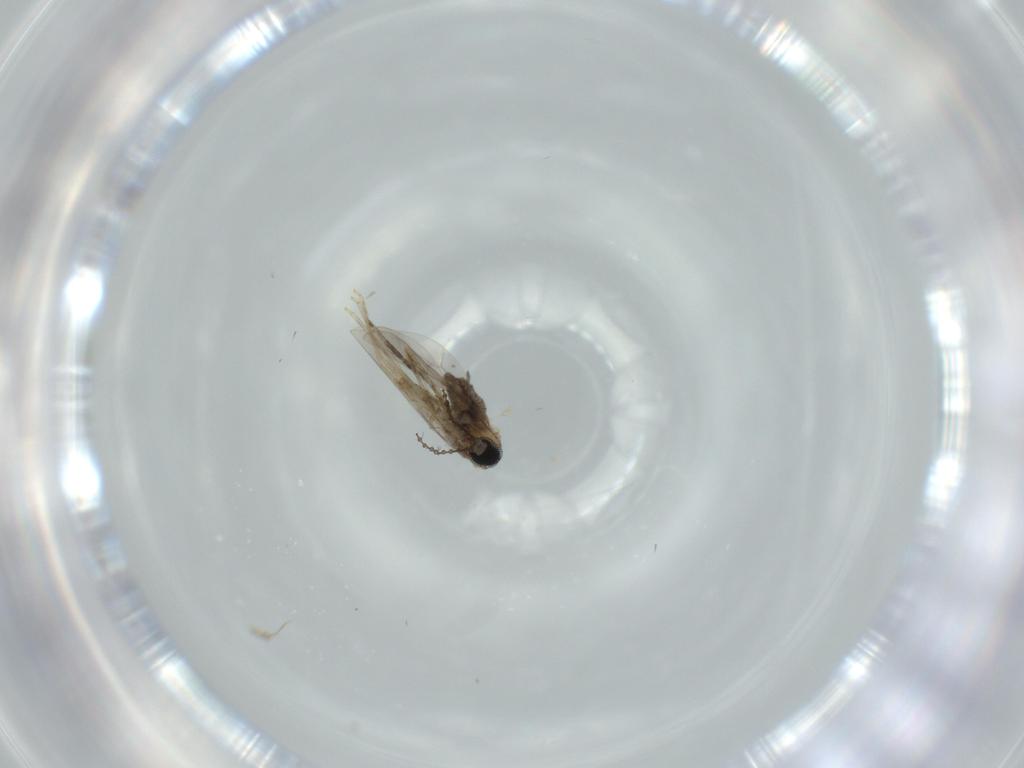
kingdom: Animalia
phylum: Arthropoda
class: Insecta
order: Diptera
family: Cecidomyiidae
